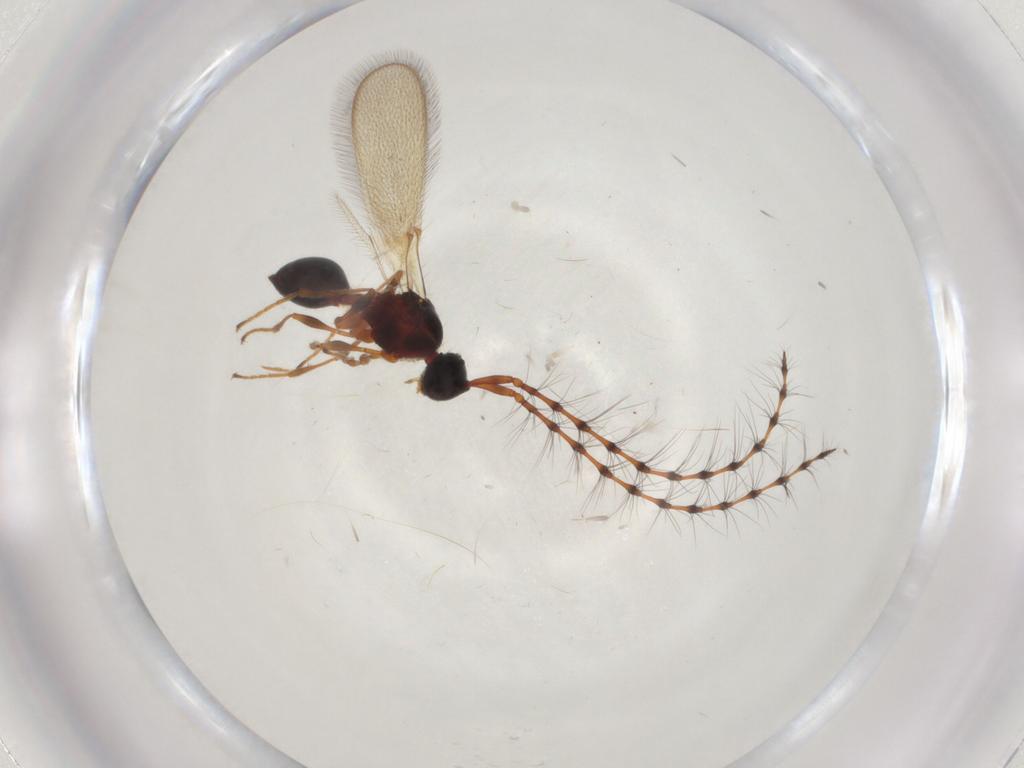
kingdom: Animalia
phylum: Arthropoda
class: Insecta
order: Hymenoptera
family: Diapriidae
